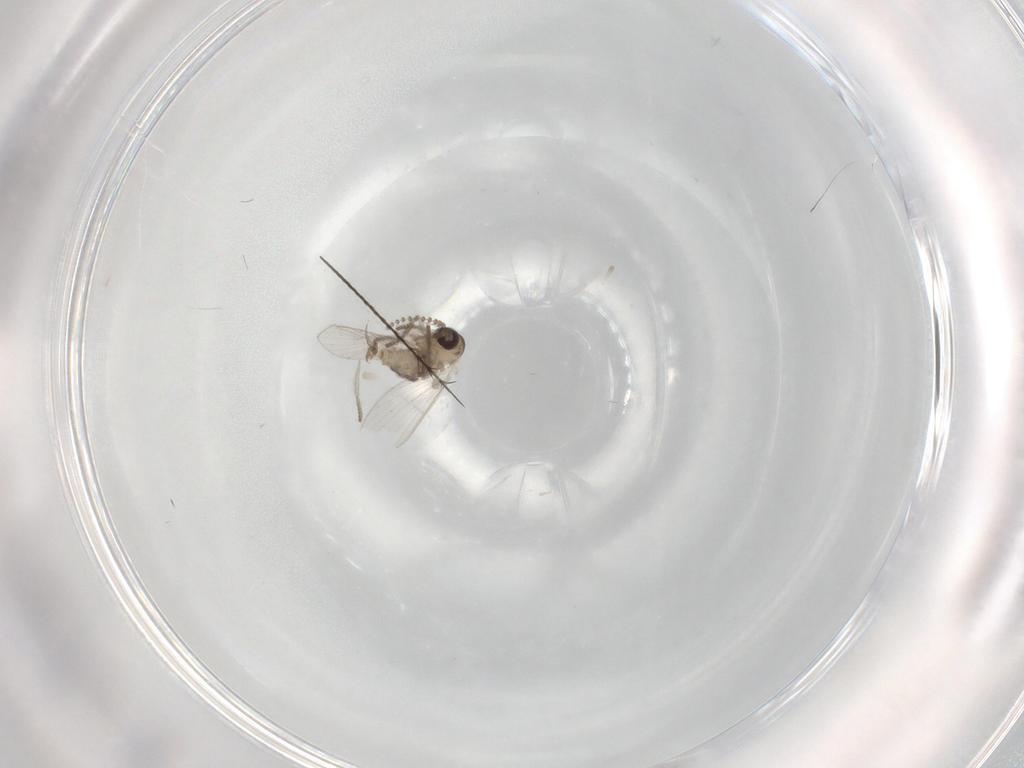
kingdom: Animalia
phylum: Arthropoda
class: Insecta
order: Diptera
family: Psychodidae
